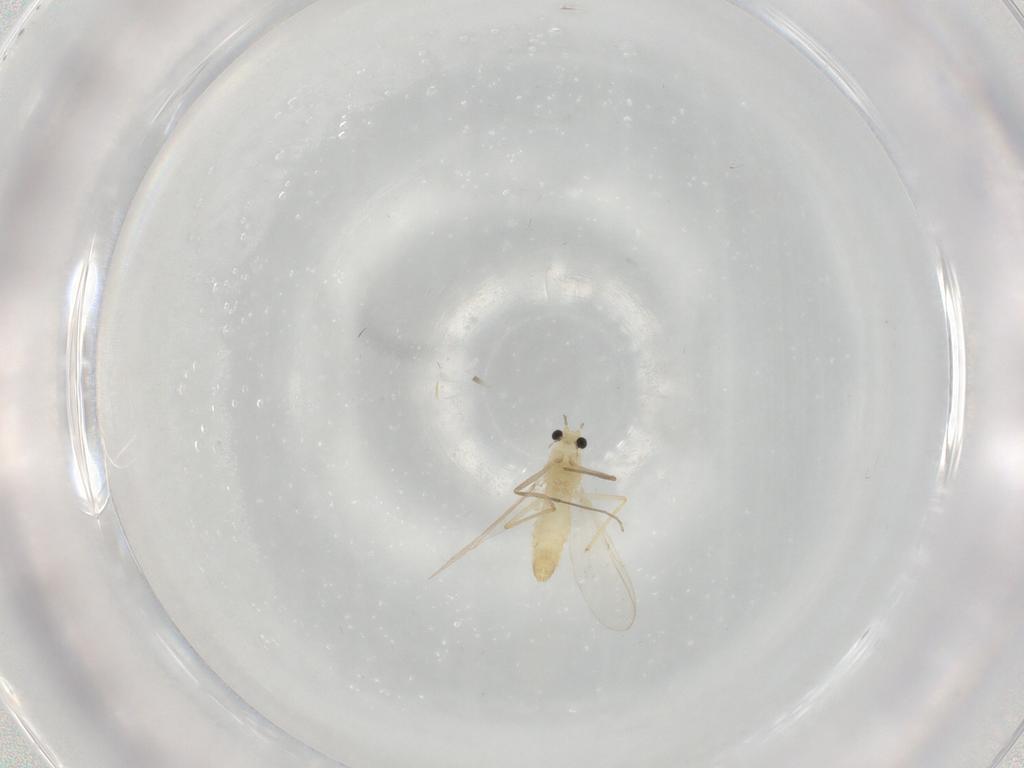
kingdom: Animalia
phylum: Arthropoda
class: Insecta
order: Diptera
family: Chironomidae
